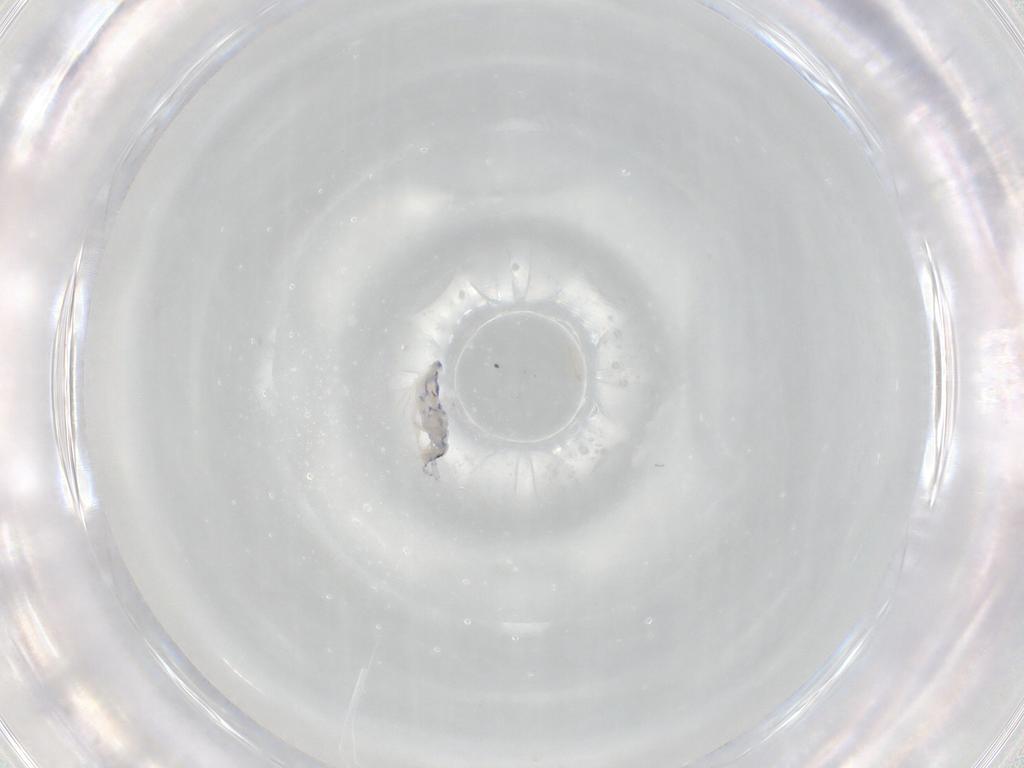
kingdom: Animalia
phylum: Arthropoda
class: Collembola
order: Entomobryomorpha
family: Entomobryidae
